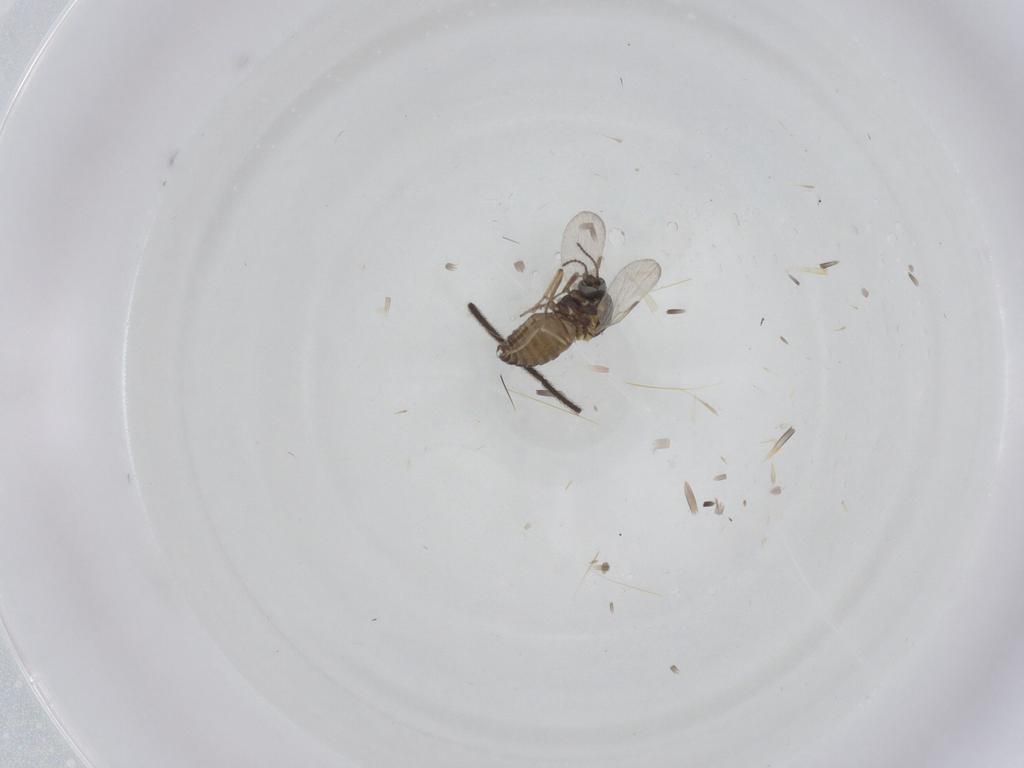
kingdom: Animalia
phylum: Arthropoda
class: Insecta
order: Diptera
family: Ceratopogonidae
